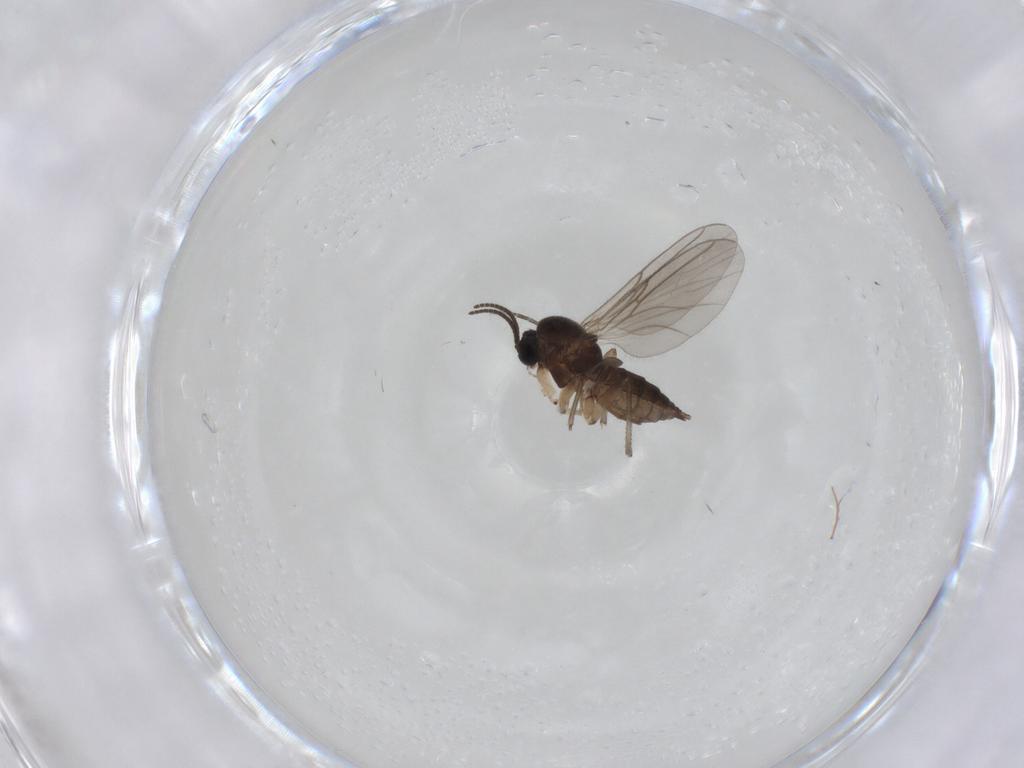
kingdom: Animalia
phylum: Arthropoda
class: Insecta
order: Diptera
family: Sciaridae
